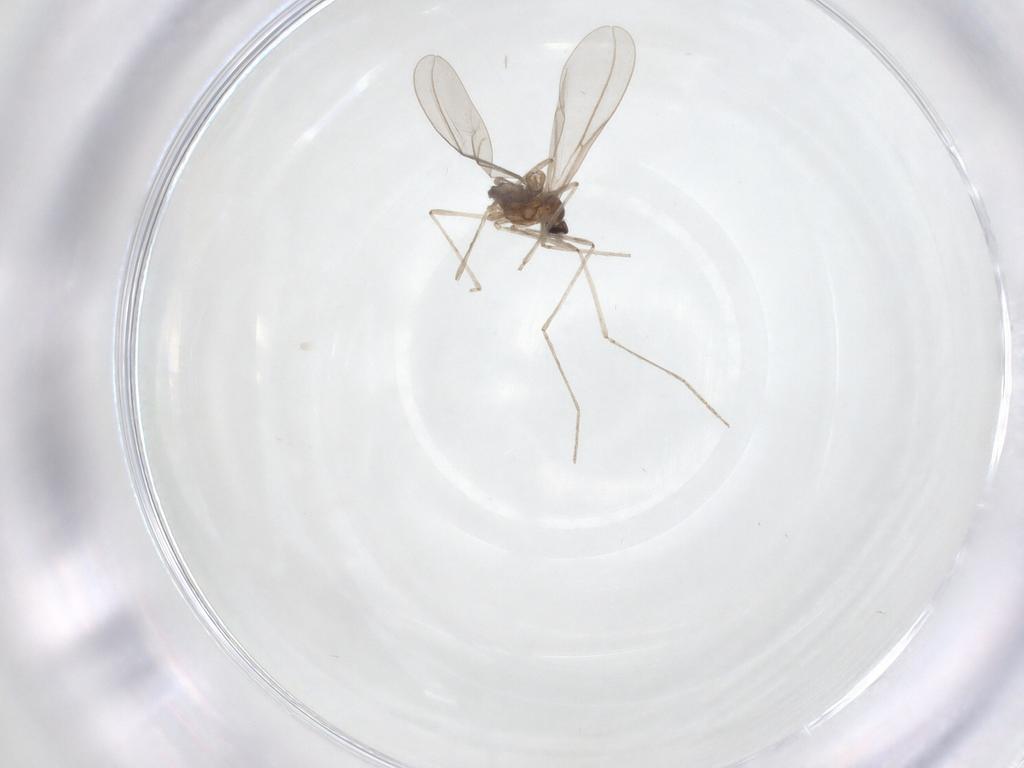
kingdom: Animalia
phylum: Arthropoda
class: Insecta
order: Diptera
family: Cecidomyiidae
